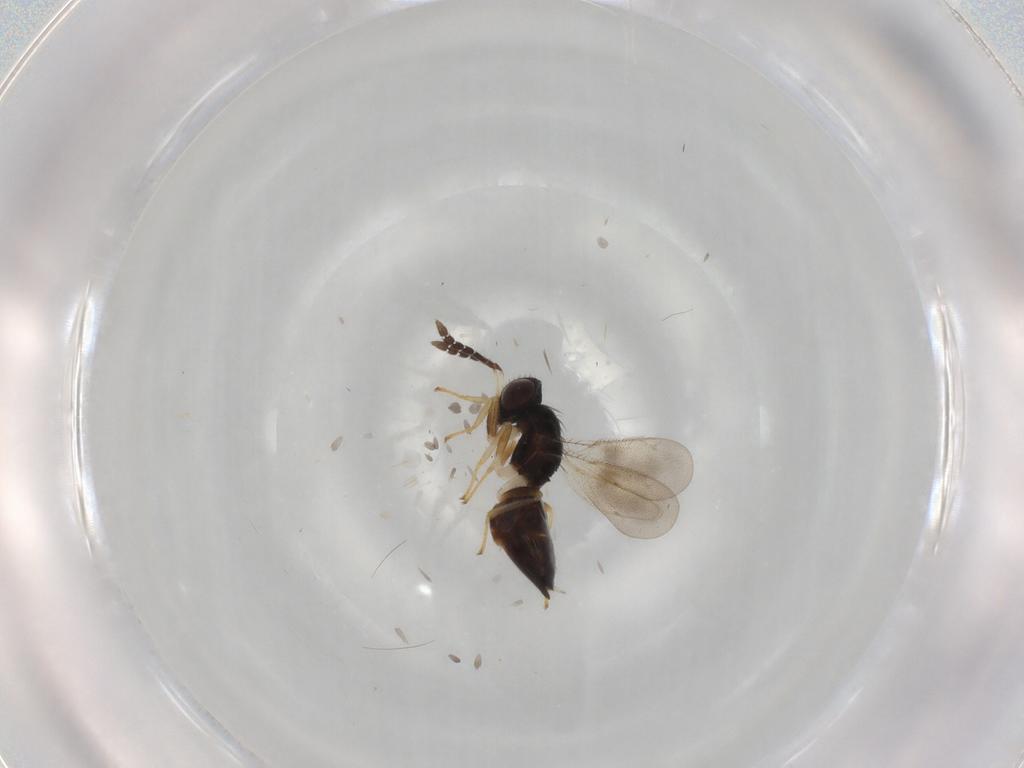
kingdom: Animalia
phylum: Arthropoda
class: Insecta
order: Hymenoptera
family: Eulophidae
